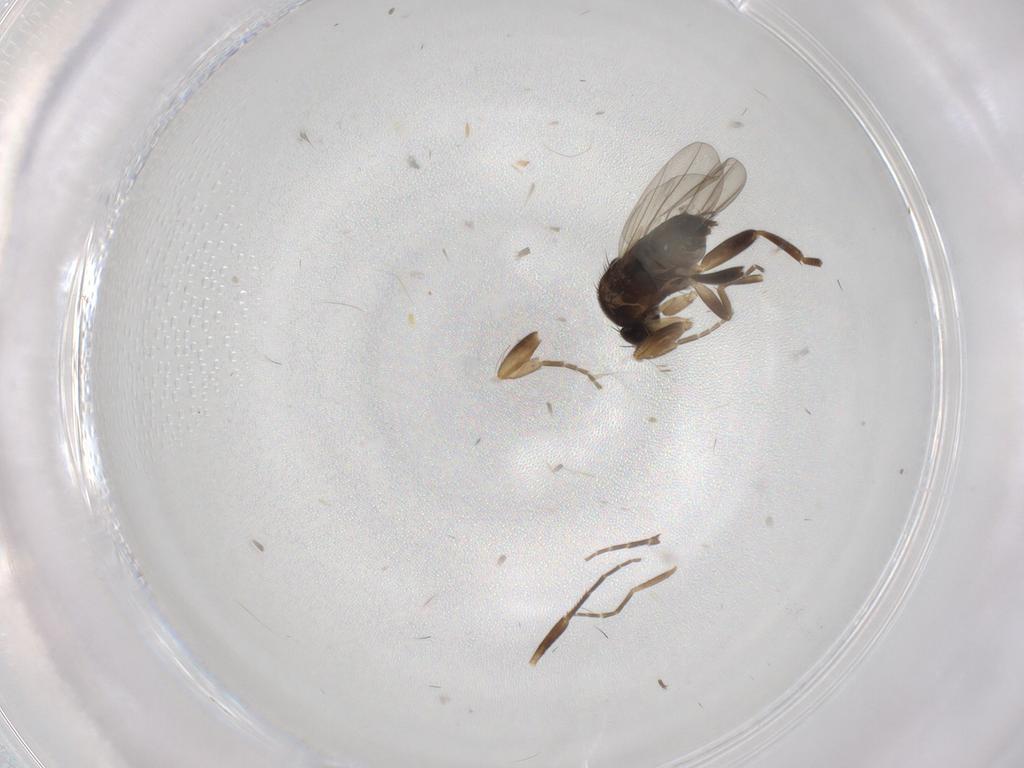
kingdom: Animalia
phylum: Arthropoda
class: Insecta
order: Diptera
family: Phoridae
